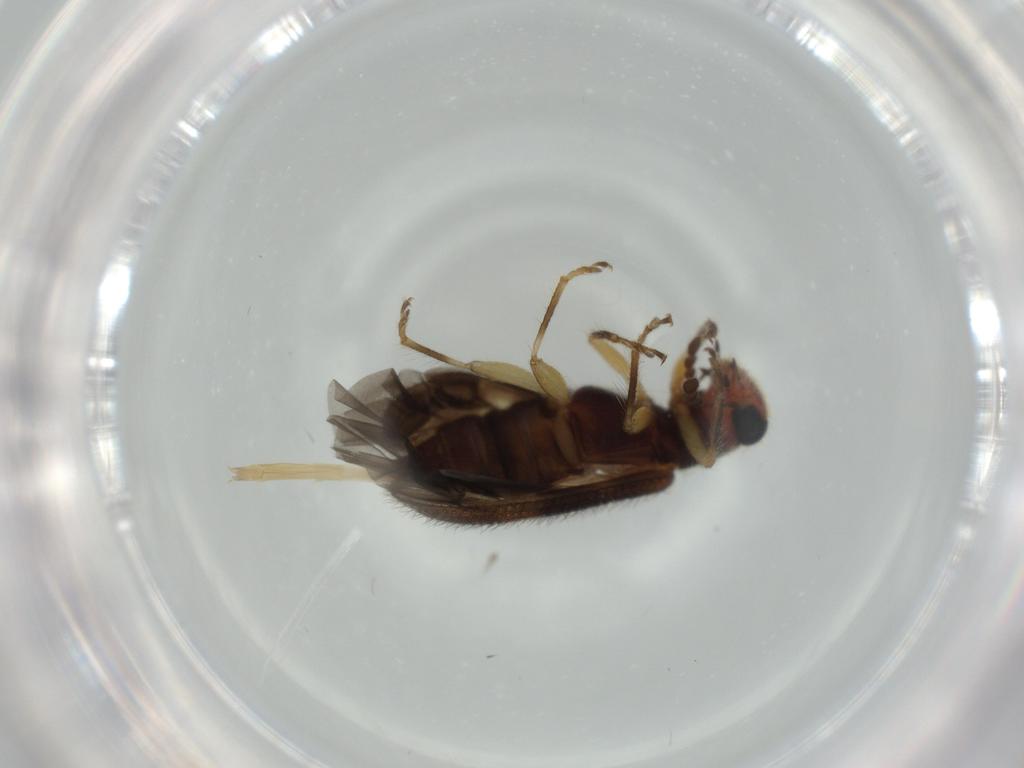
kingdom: Animalia
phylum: Arthropoda
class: Insecta
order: Coleoptera
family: Cleridae
